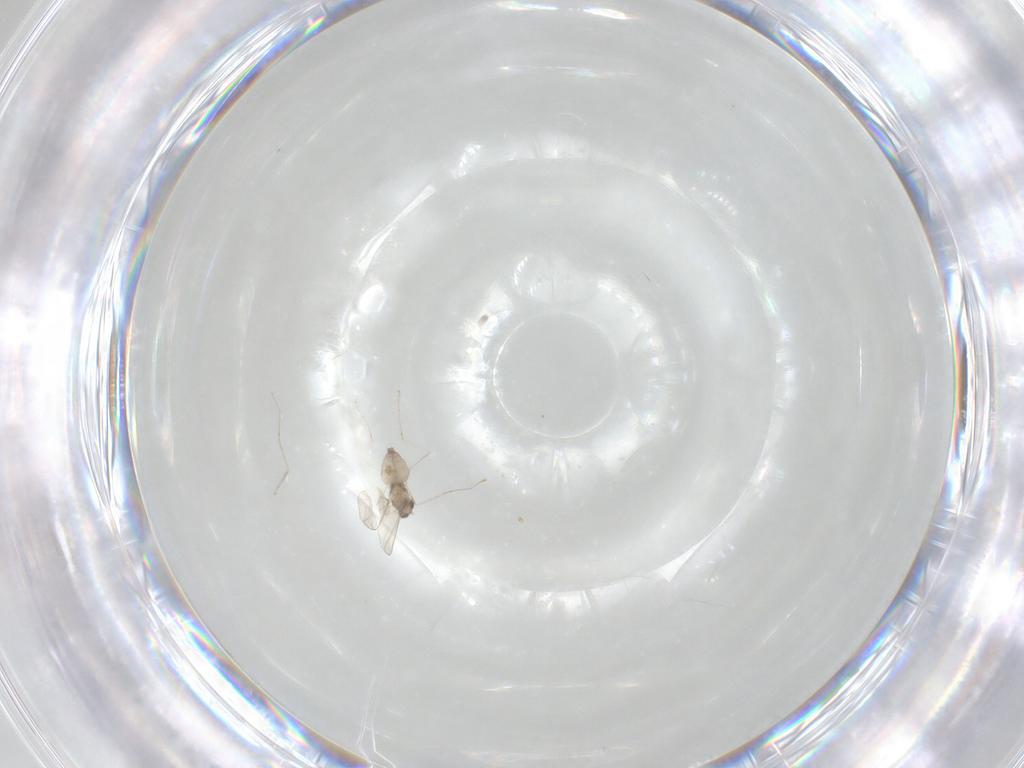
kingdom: Animalia
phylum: Arthropoda
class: Insecta
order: Diptera
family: Cecidomyiidae
